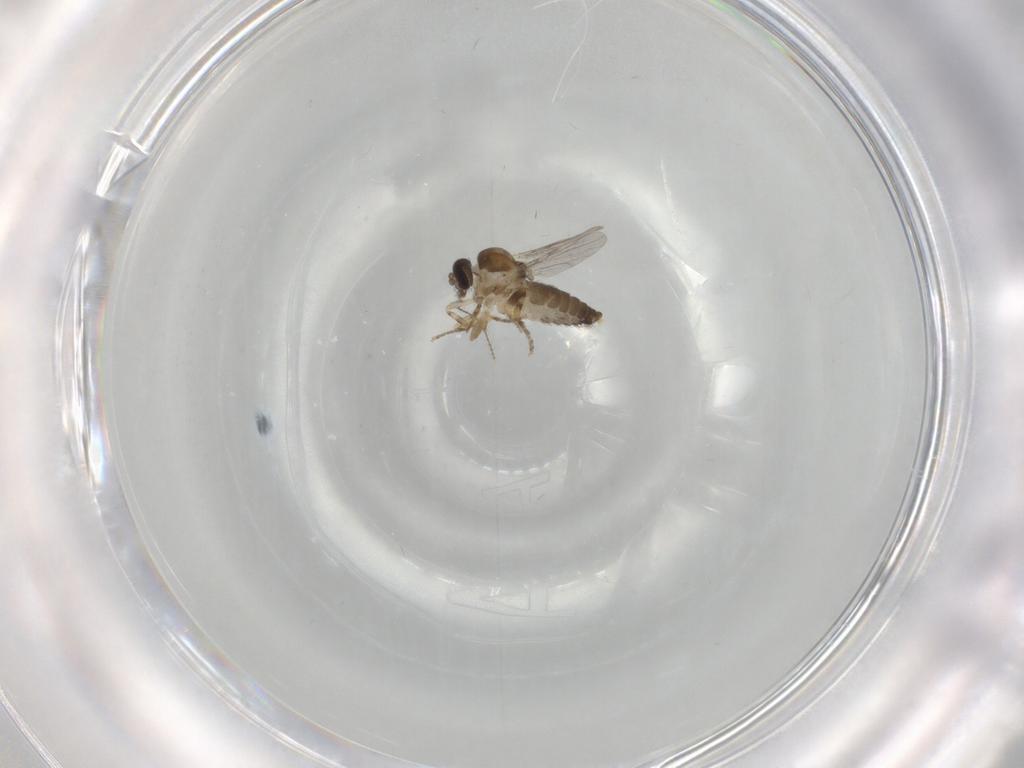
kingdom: Animalia
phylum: Arthropoda
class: Insecta
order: Diptera
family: Ceratopogonidae
